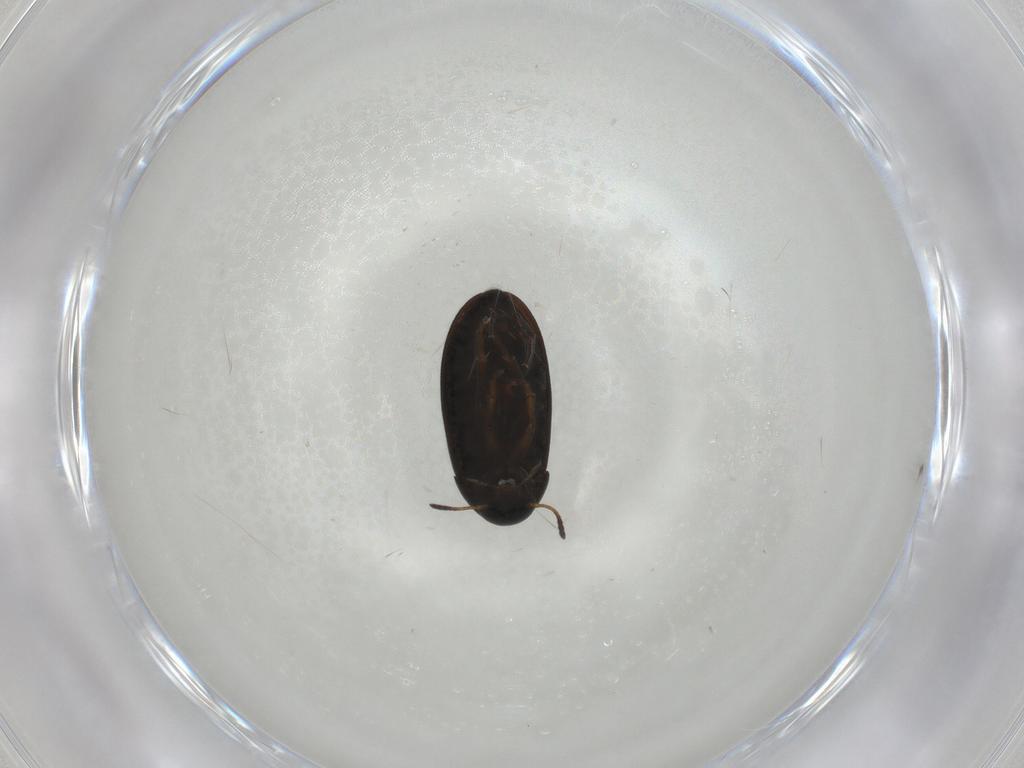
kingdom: Animalia
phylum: Arthropoda
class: Insecta
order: Coleoptera
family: Scraptiidae
